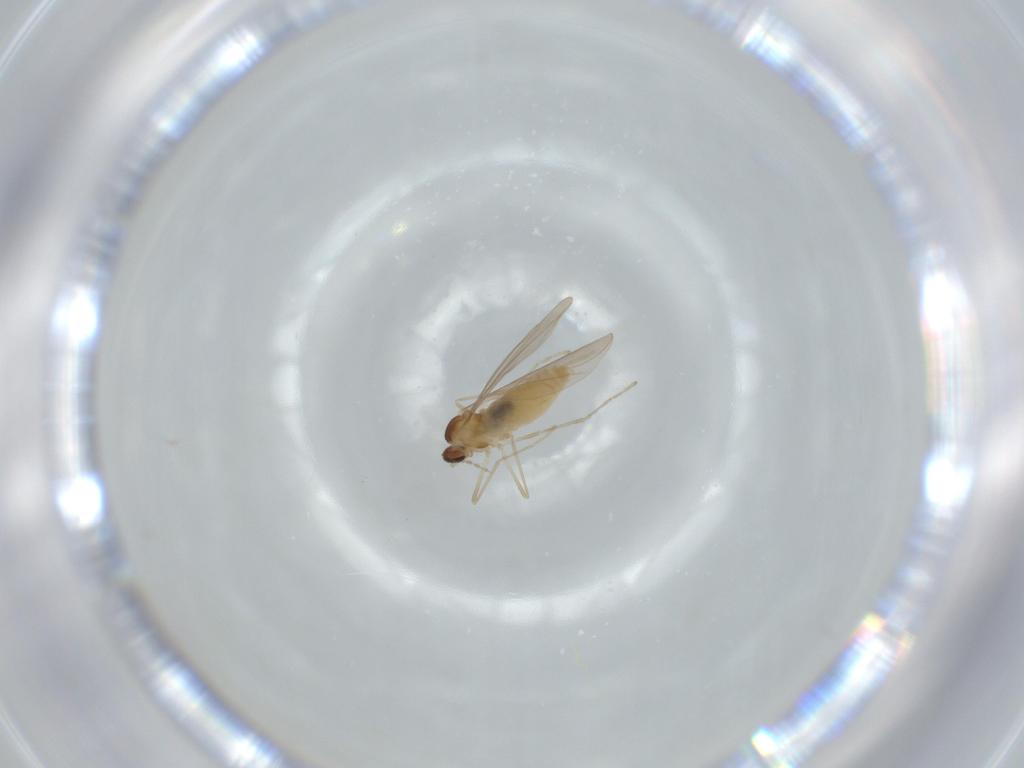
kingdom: Animalia
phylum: Arthropoda
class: Insecta
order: Diptera
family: Cecidomyiidae
